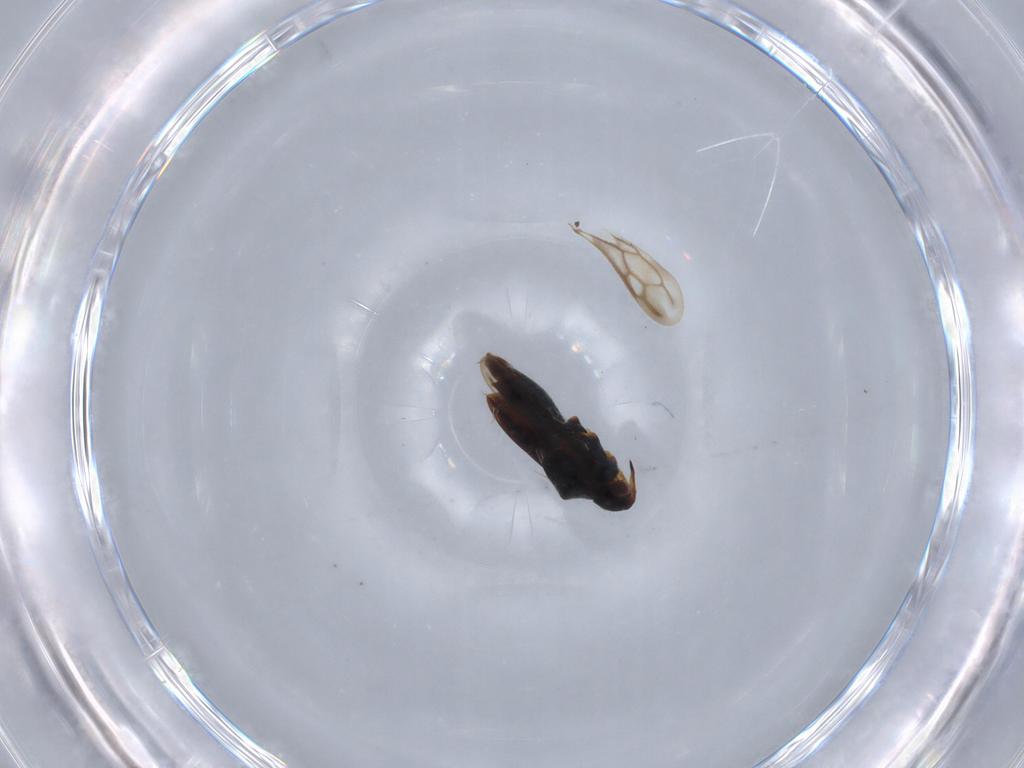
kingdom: Animalia
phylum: Arthropoda
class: Insecta
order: Hemiptera
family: Veliidae
